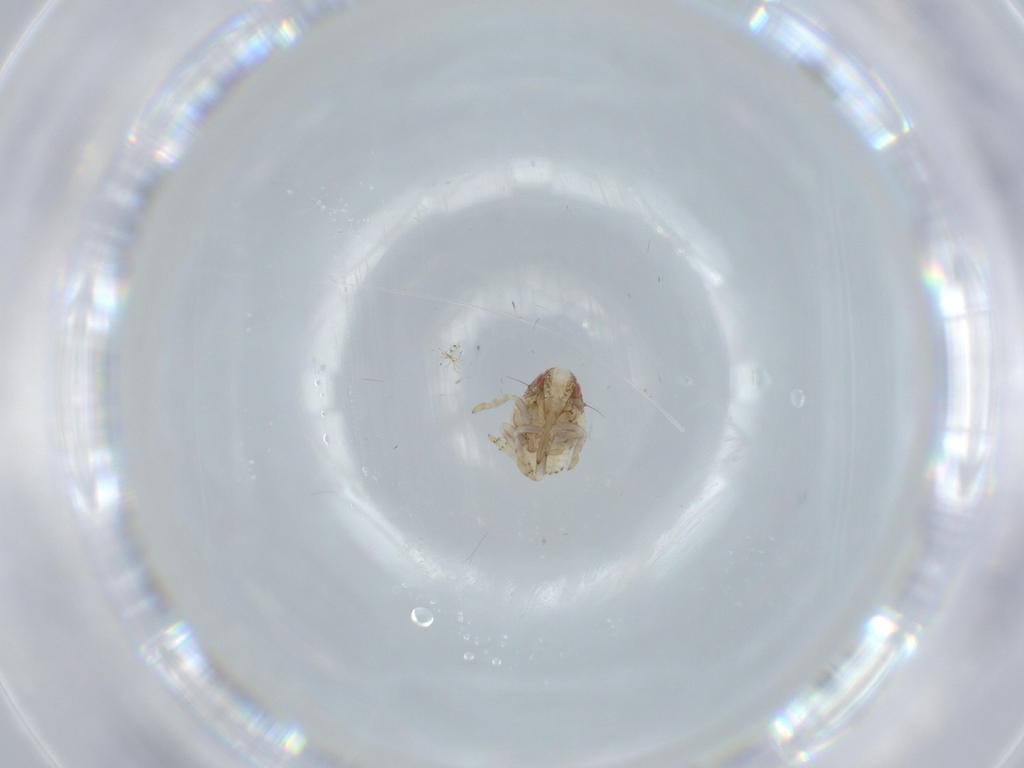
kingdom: Animalia
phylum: Arthropoda
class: Insecta
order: Hemiptera
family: Acanaloniidae
